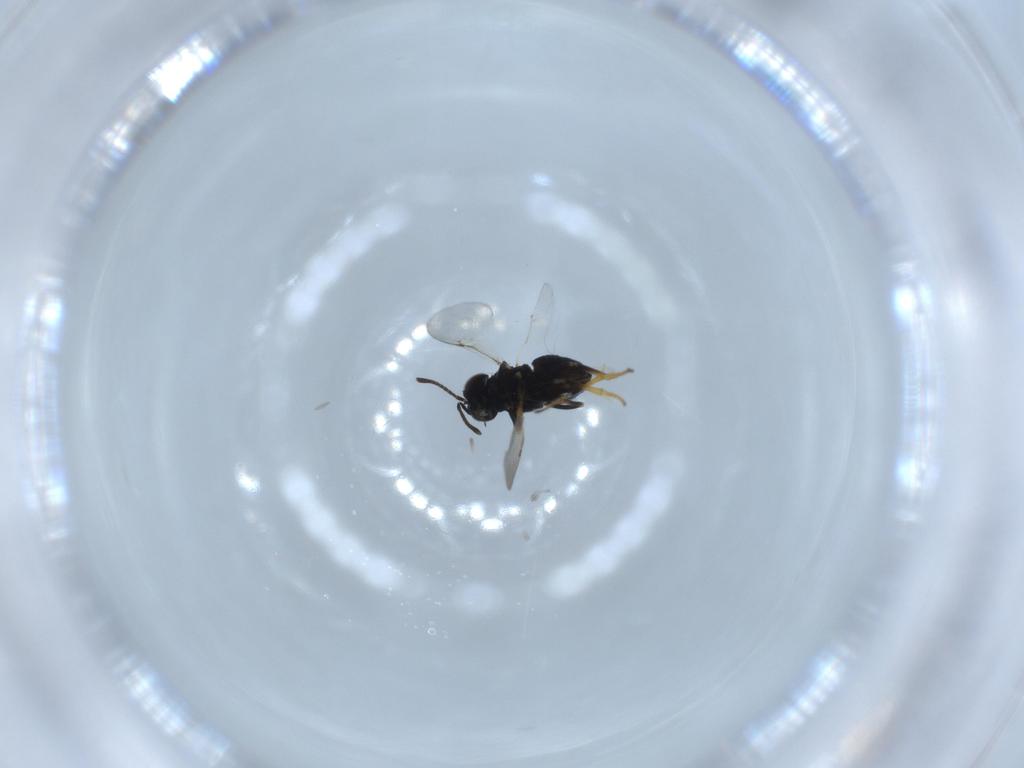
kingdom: Animalia
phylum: Arthropoda
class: Insecta
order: Hymenoptera
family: Encyrtidae
